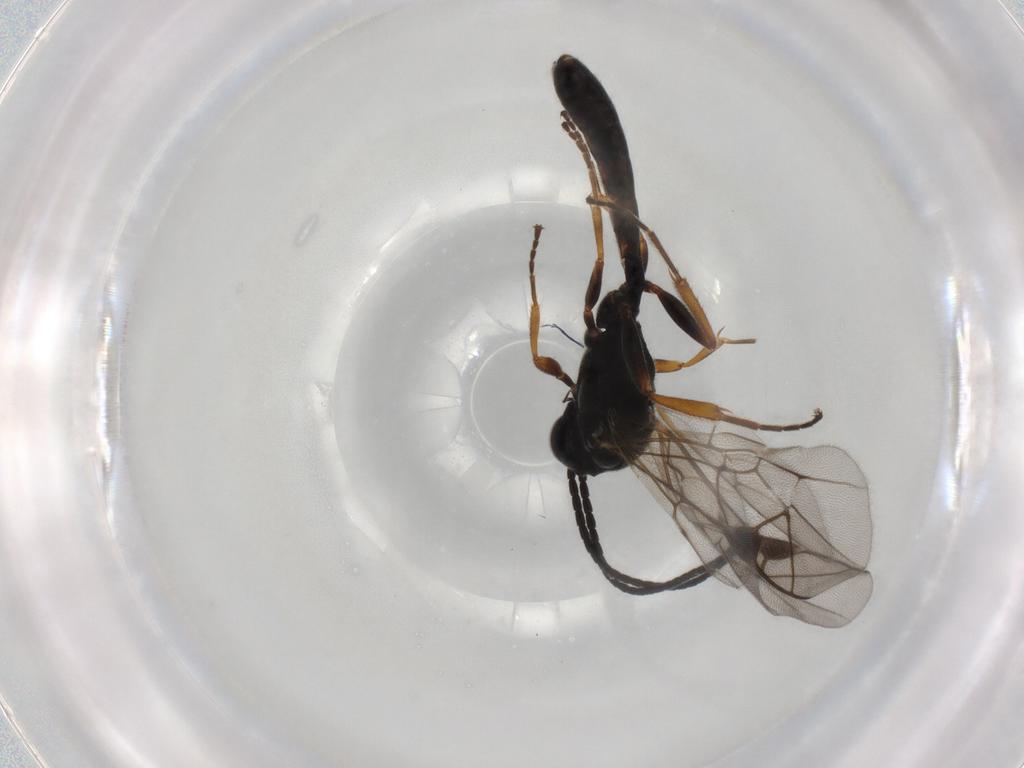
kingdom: Animalia
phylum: Arthropoda
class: Insecta
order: Hymenoptera
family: Ichneumonidae
